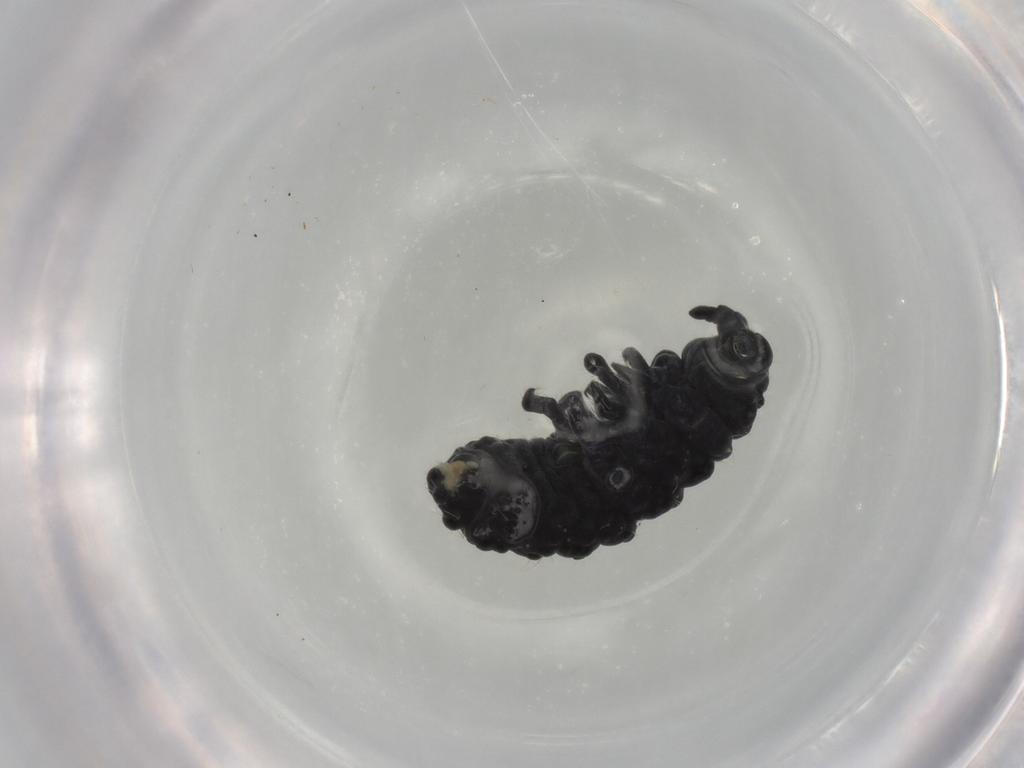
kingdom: Animalia
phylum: Arthropoda
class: Collembola
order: Poduromorpha
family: Neanuridae
